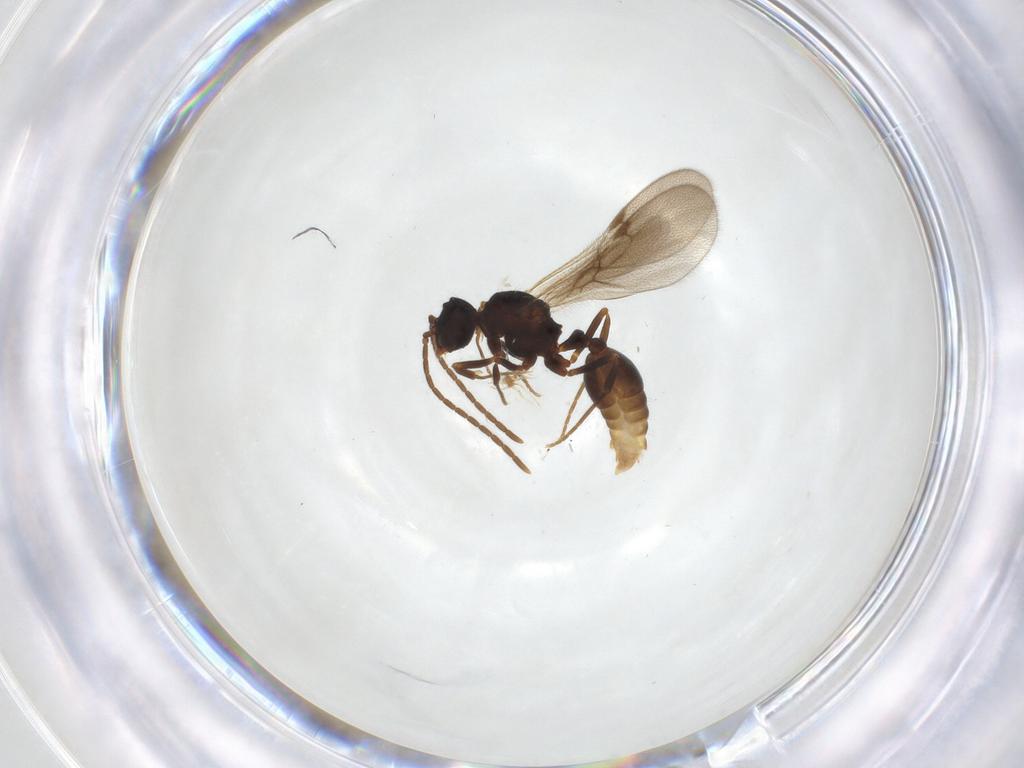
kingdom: Animalia
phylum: Arthropoda
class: Insecta
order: Hymenoptera
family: Formicidae
